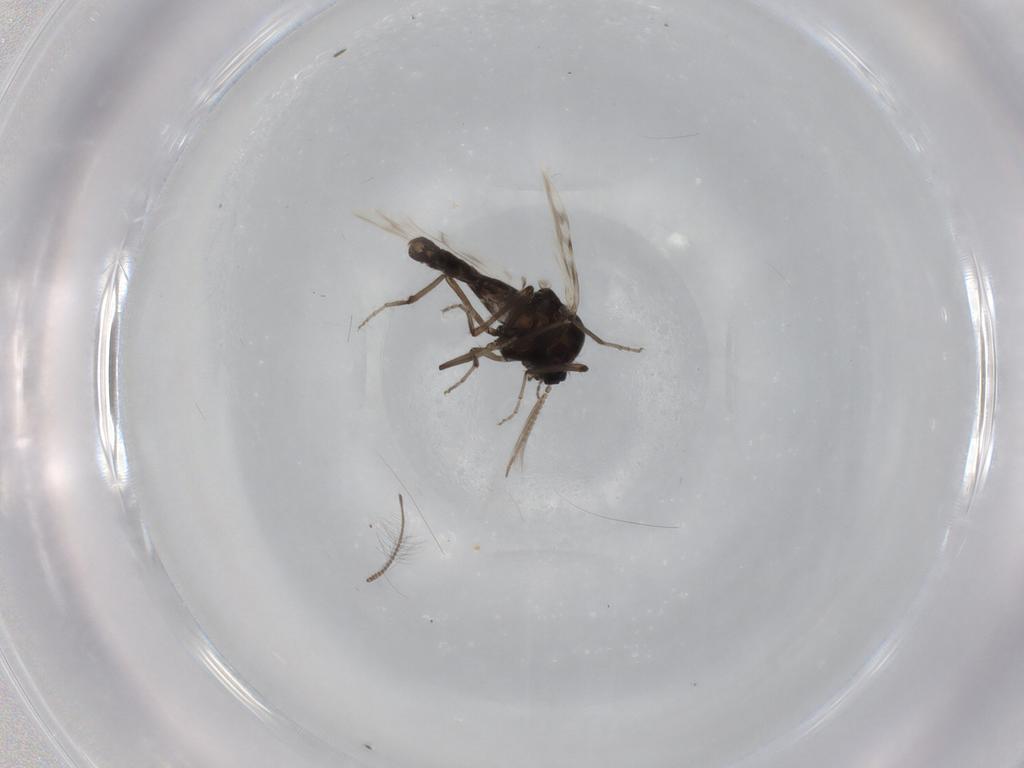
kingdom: Animalia
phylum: Arthropoda
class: Insecta
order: Diptera
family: Chironomidae
